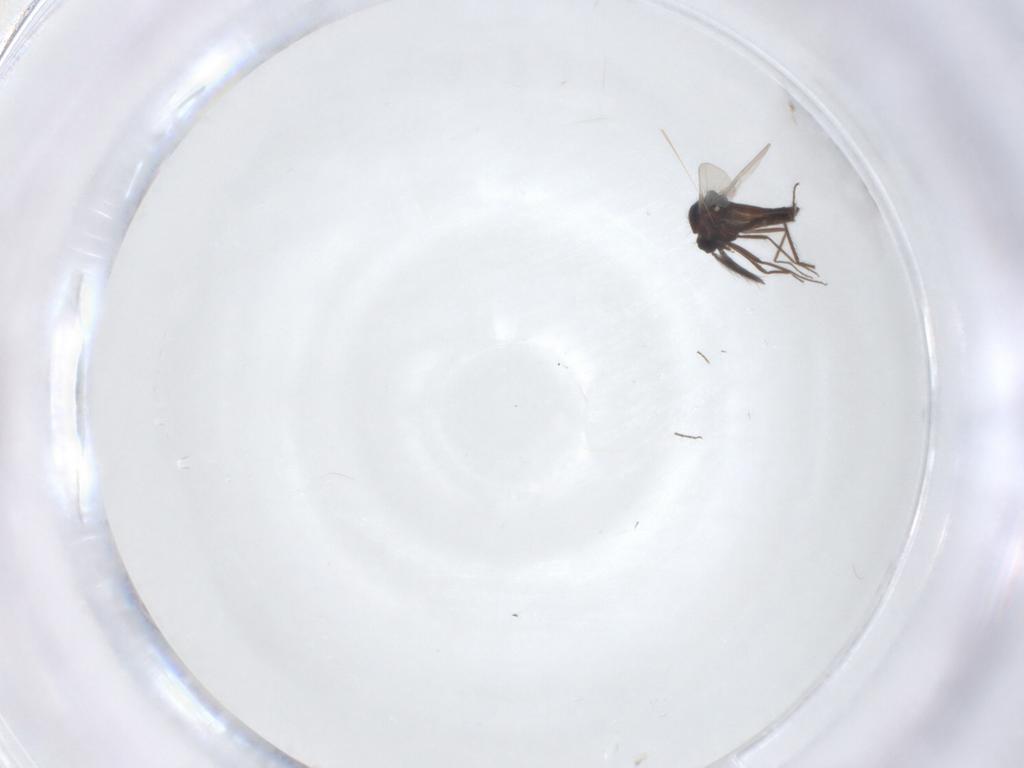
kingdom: Animalia
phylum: Arthropoda
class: Insecta
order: Diptera
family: Ceratopogonidae
